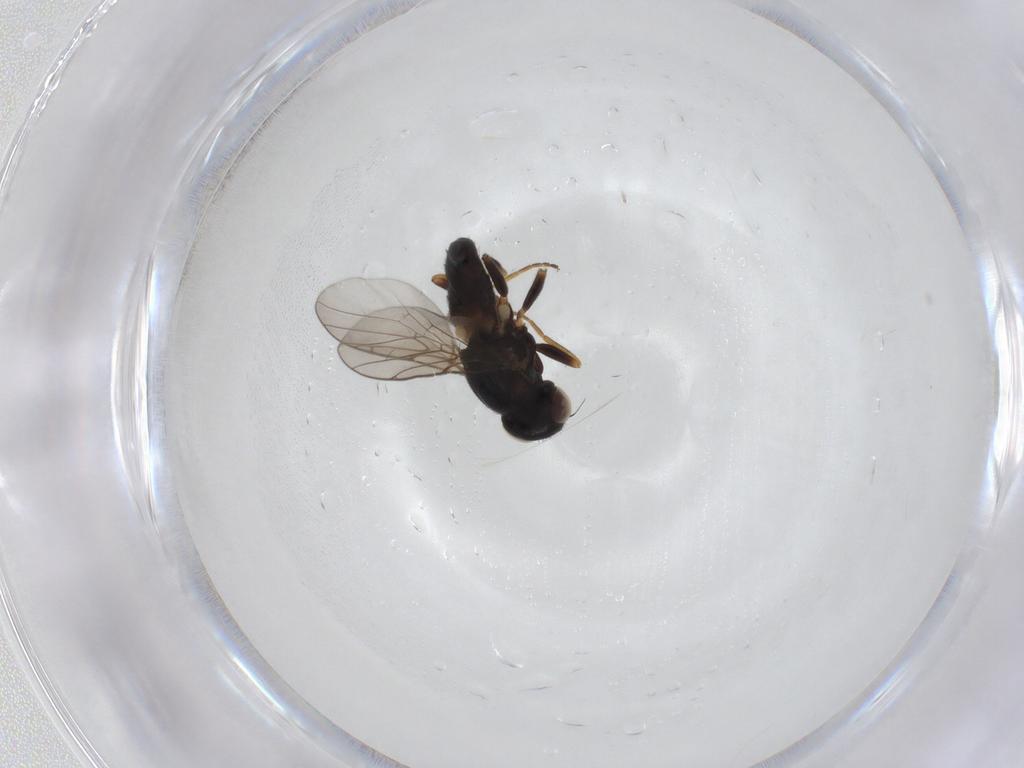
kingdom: Animalia
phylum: Arthropoda
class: Insecta
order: Diptera
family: Chloropidae
